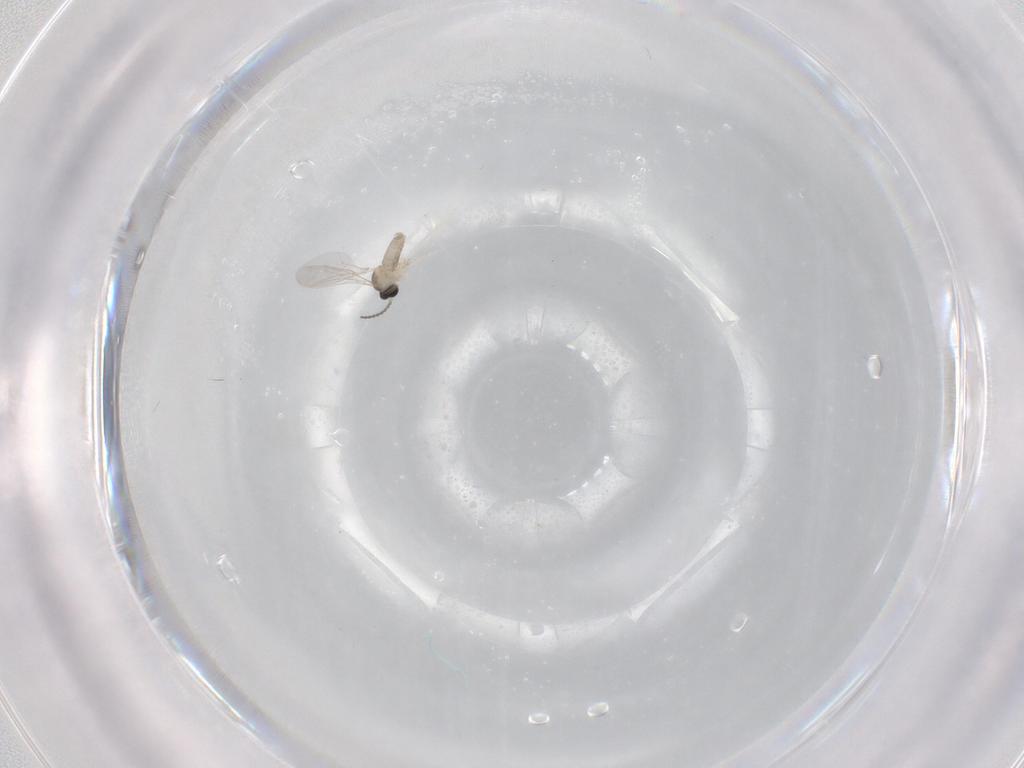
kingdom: Animalia
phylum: Arthropoda
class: Insecta
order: Diptera
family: Cecidomyiidae
